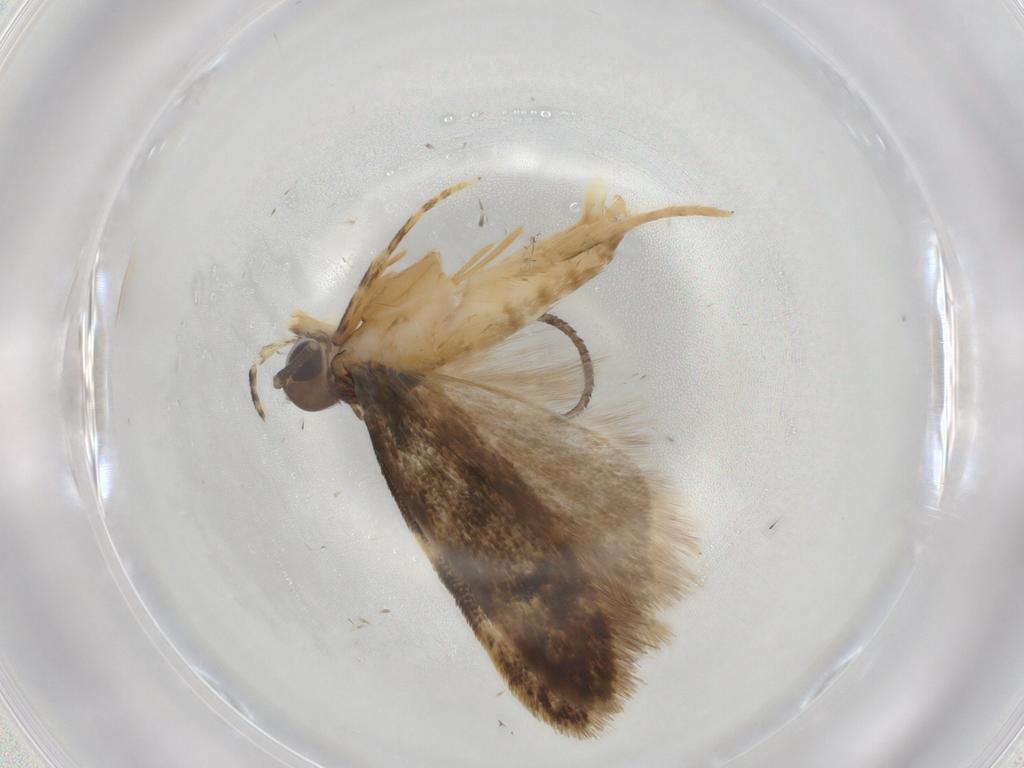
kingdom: Animalia
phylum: Arthropoda
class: Insecta
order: Lepidoptera
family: Autostichidae
